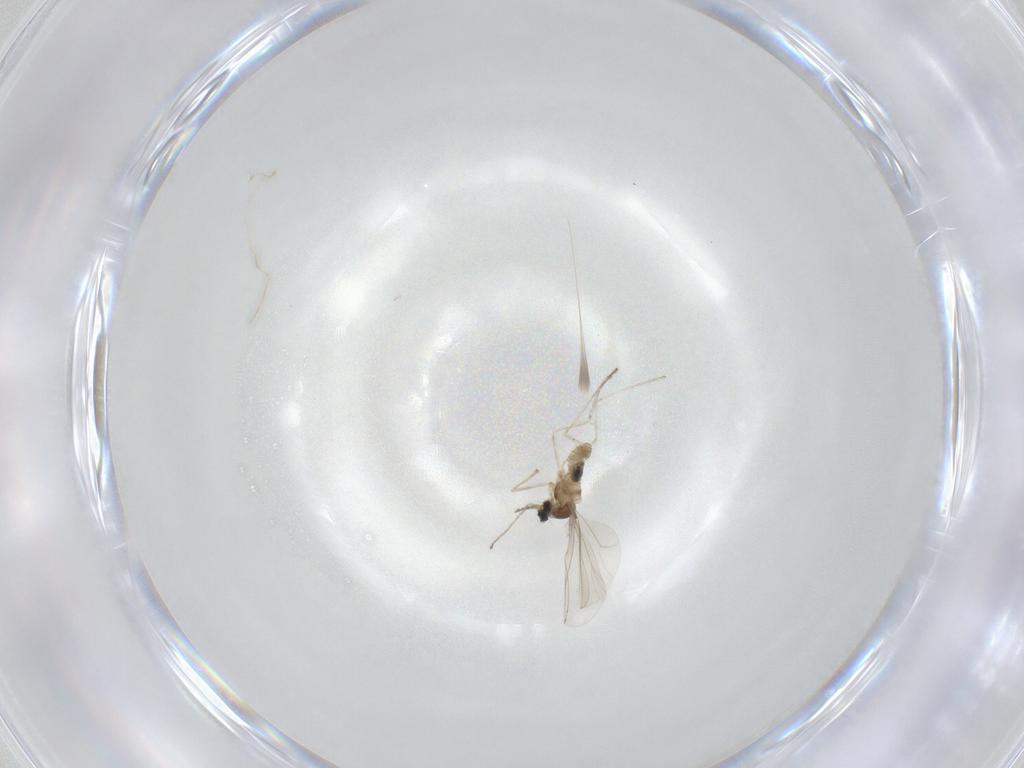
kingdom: Animalia
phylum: Arthropoda
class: Insecta
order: Diptera
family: Cecidomyiidae
